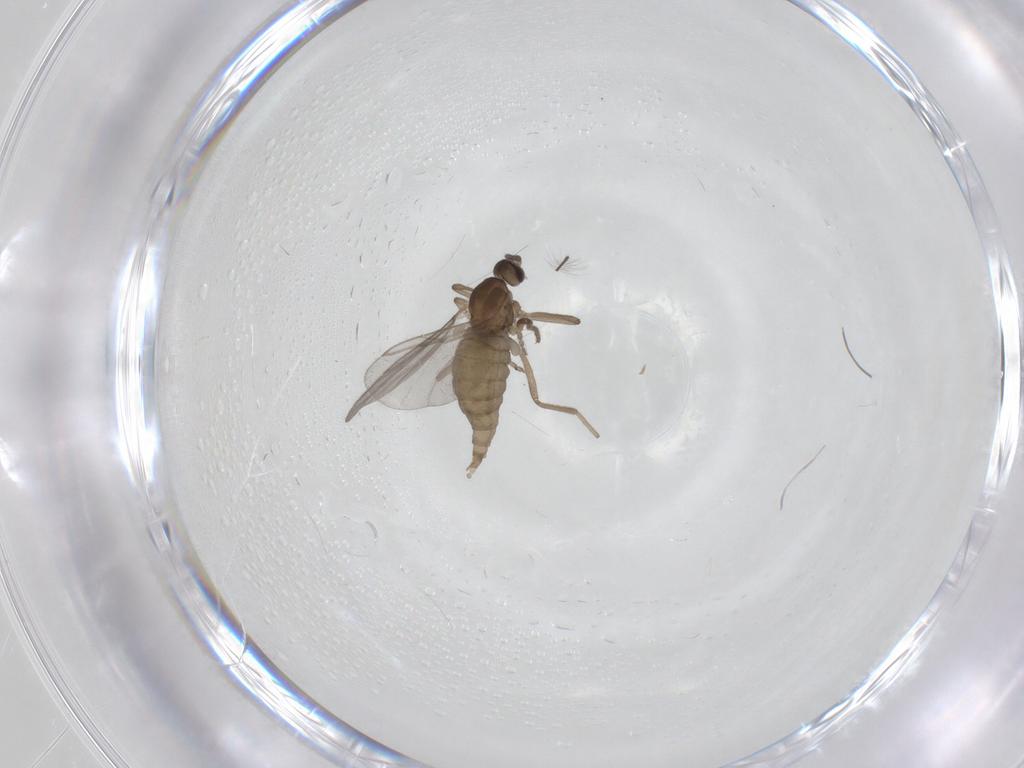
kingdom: Animalia
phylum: Arthropoda
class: Insecta
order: Diptera
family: Cecidomyiidae
